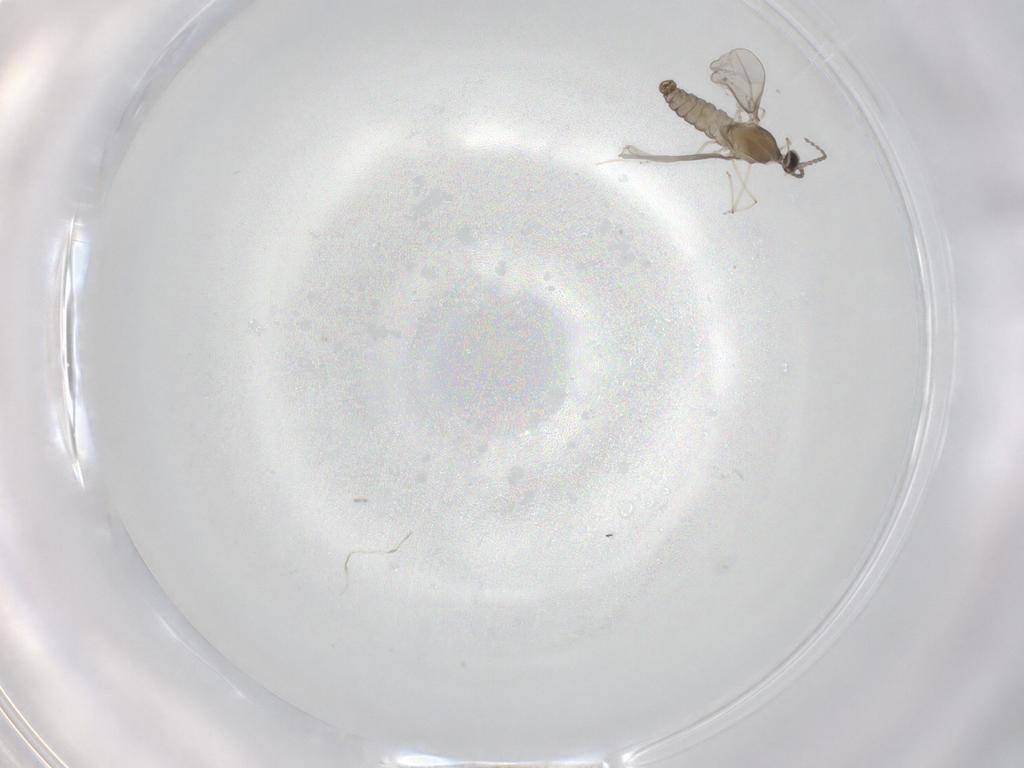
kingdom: Animalia
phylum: Arthropoda
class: Insecta
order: Diptera
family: Cecidomyiidae
